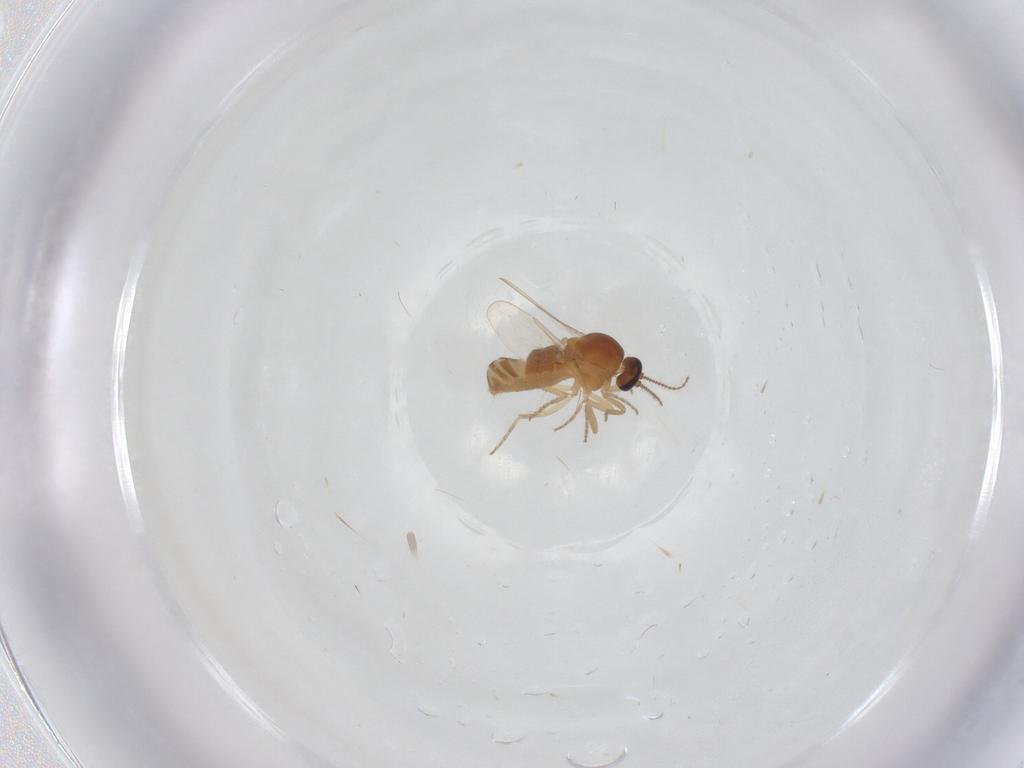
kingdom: Animalia
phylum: Arthropoda
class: Insecta
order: Diptera
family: Ceratopogonidae
